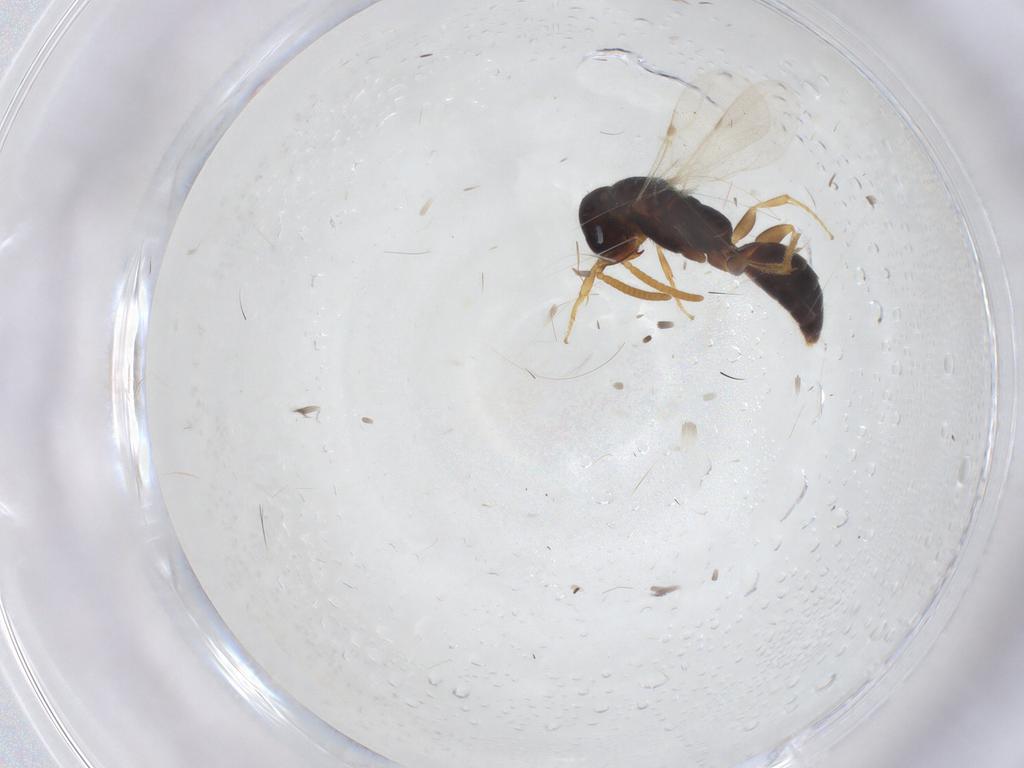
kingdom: Animalia
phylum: Arthropoda
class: Insecta
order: Hymenoptera
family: Bethylidae
